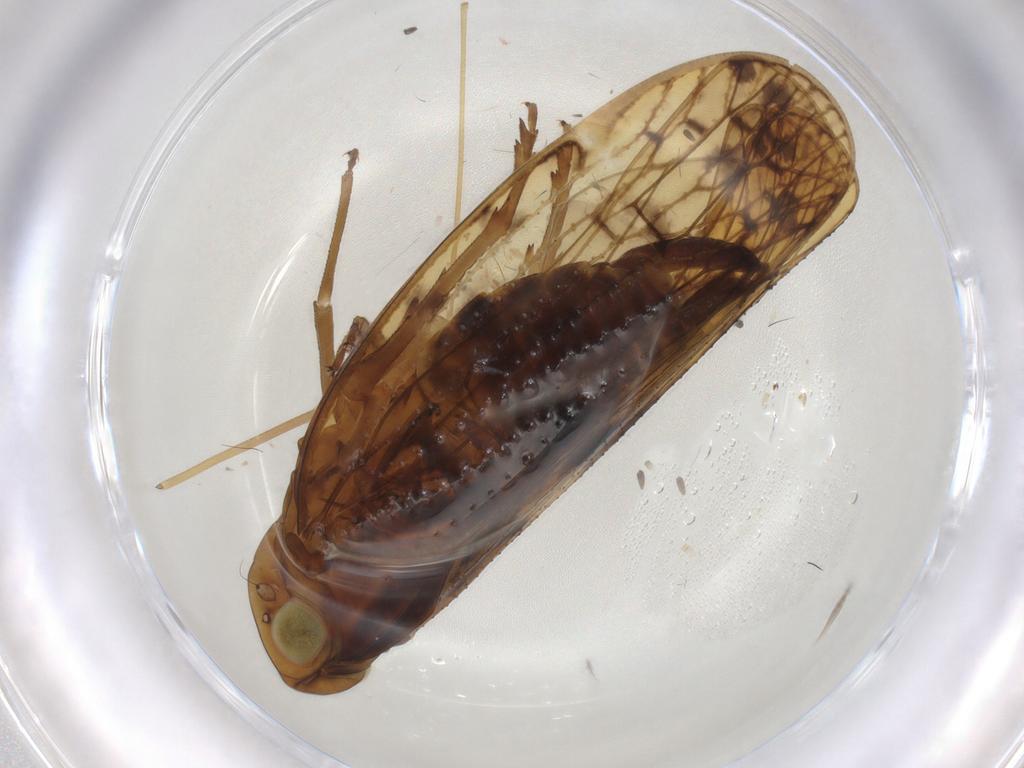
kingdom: Animalia
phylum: Arthropoda
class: Insecta
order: Hemiptera
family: Cixiidae
